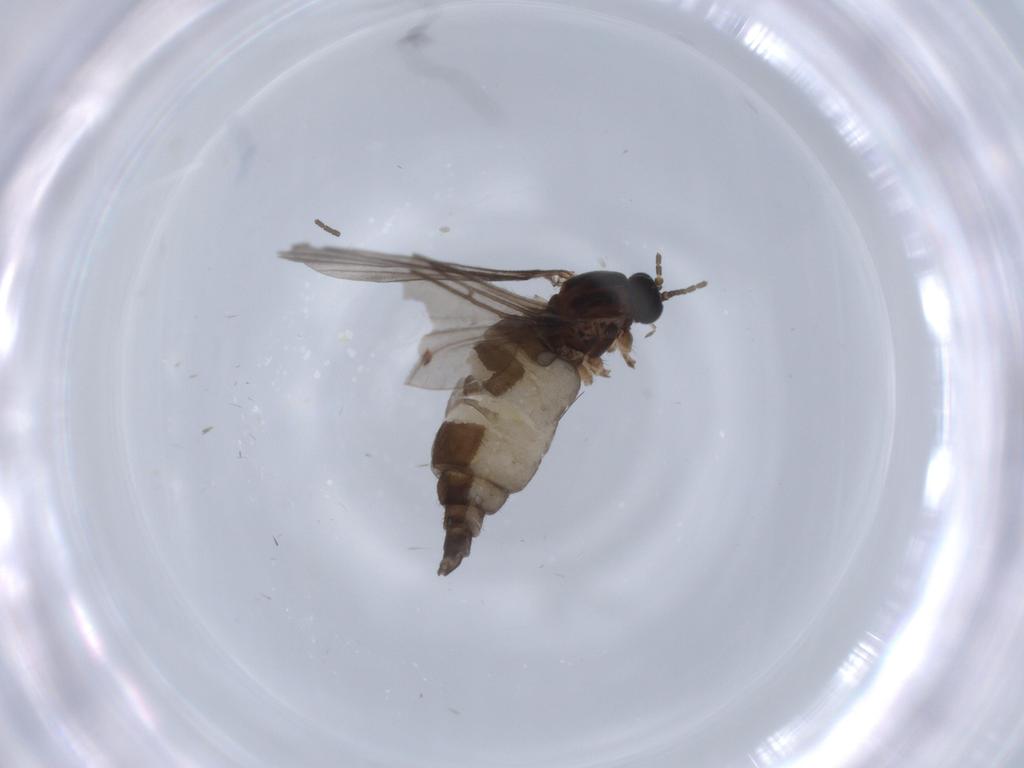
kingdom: Animalia
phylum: Arthropoda
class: Insecta
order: Diptera
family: Sciaridae
